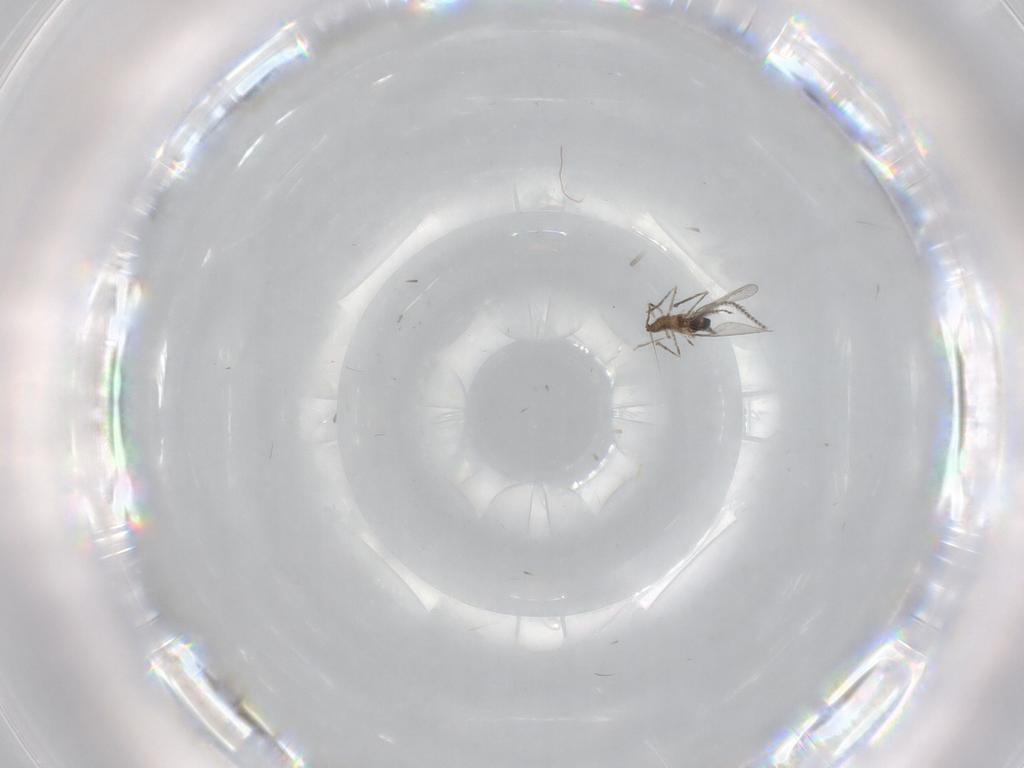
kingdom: Animalia
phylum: Arthropoda
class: Insecta
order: Diptera
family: Cecidomyiidae
